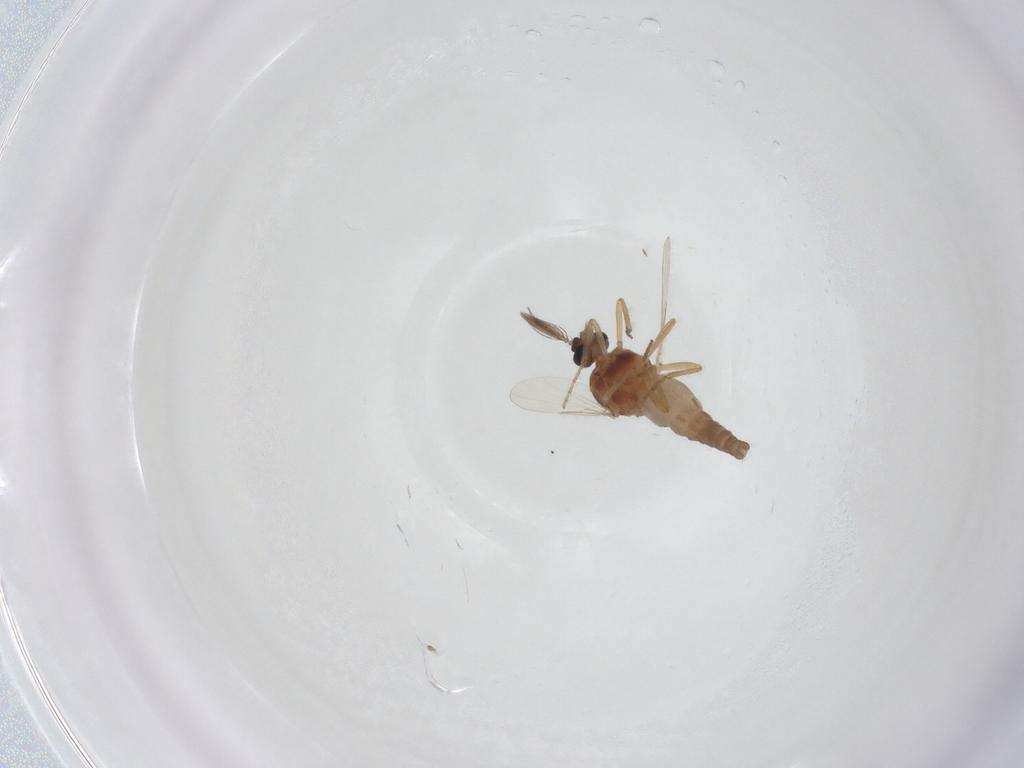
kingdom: Animalia
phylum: Arthropoda
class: Insecta
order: Diptera
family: Ceratopogonidae
